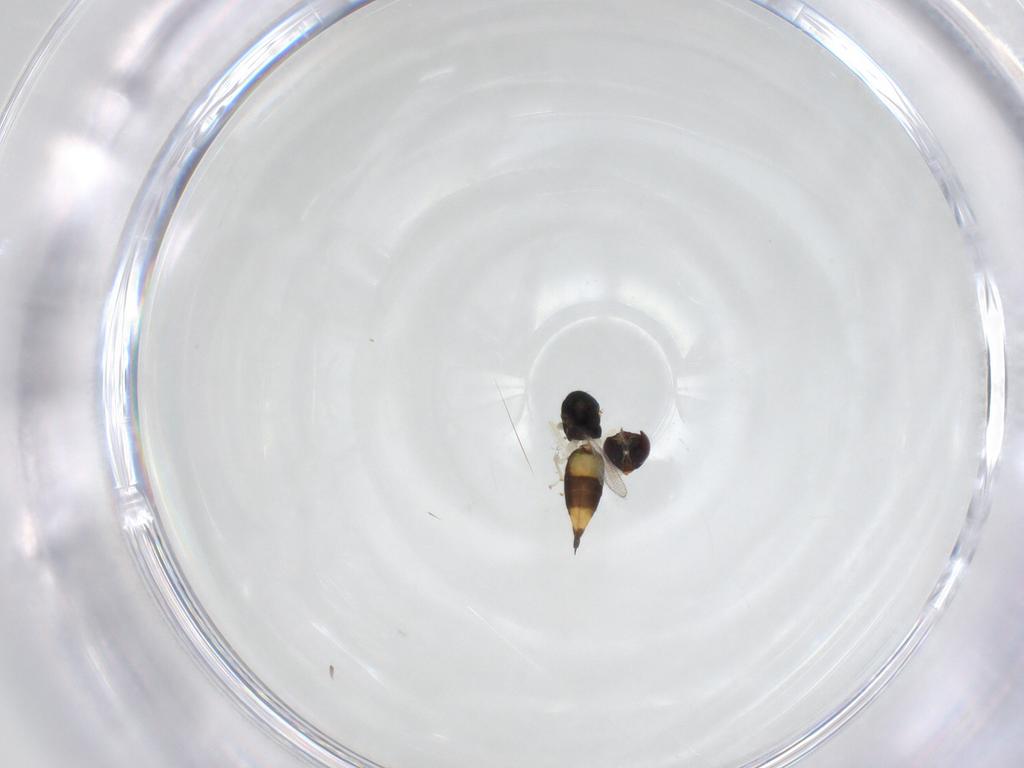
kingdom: Animalia
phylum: Arthropoda
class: Insecta
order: Hymenoptera
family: Eulophidae
